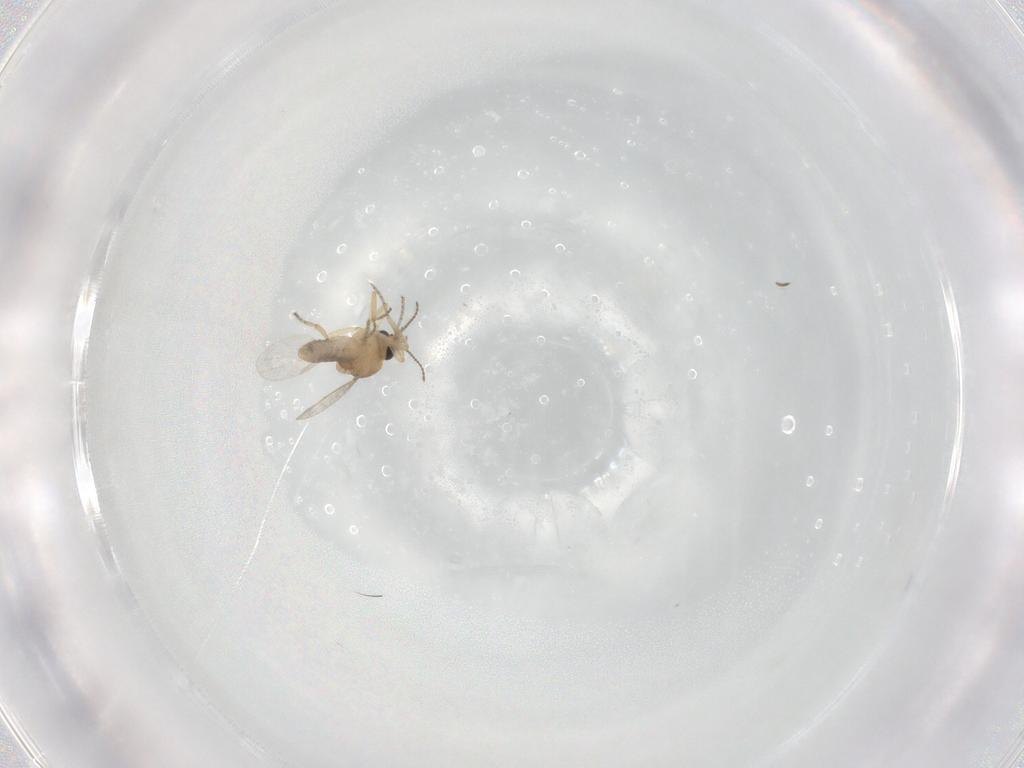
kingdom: Animalia
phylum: Arthropoda
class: Insecta
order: Diptera
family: Ceratopogonidae
